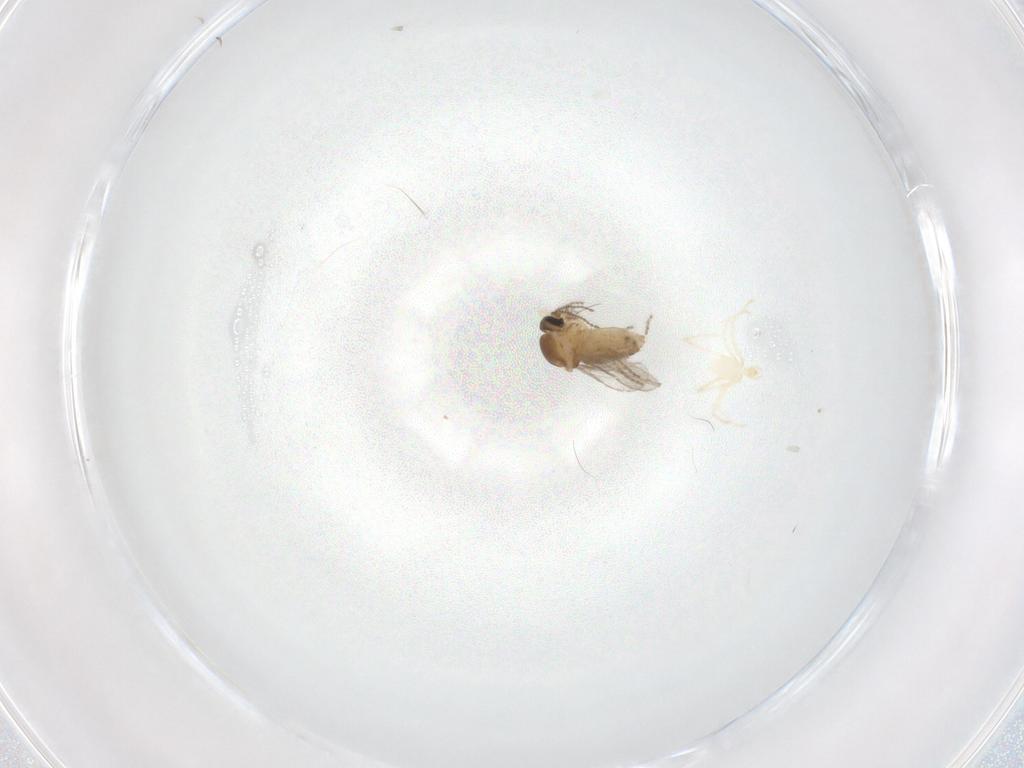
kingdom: Animalia
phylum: Arthropoda
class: Insecta
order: Diptera
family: Ceratopogonidae
